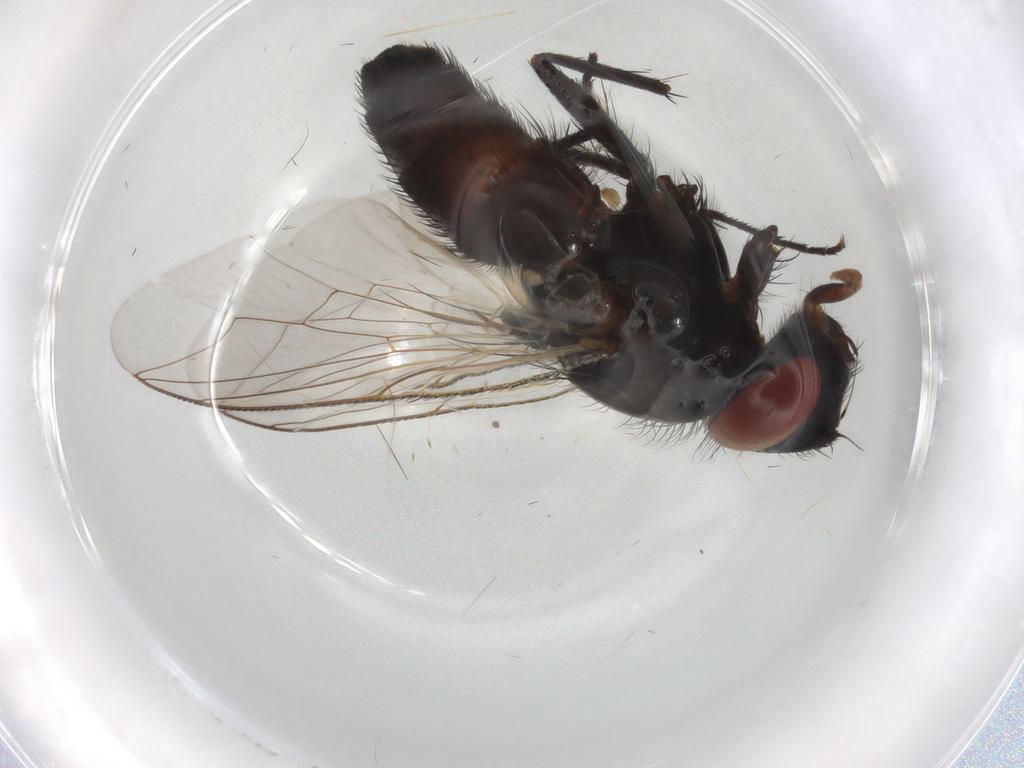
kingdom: Animalia
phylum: Arthropoda
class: Insecta
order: Diptera
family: Sarcophagidae
